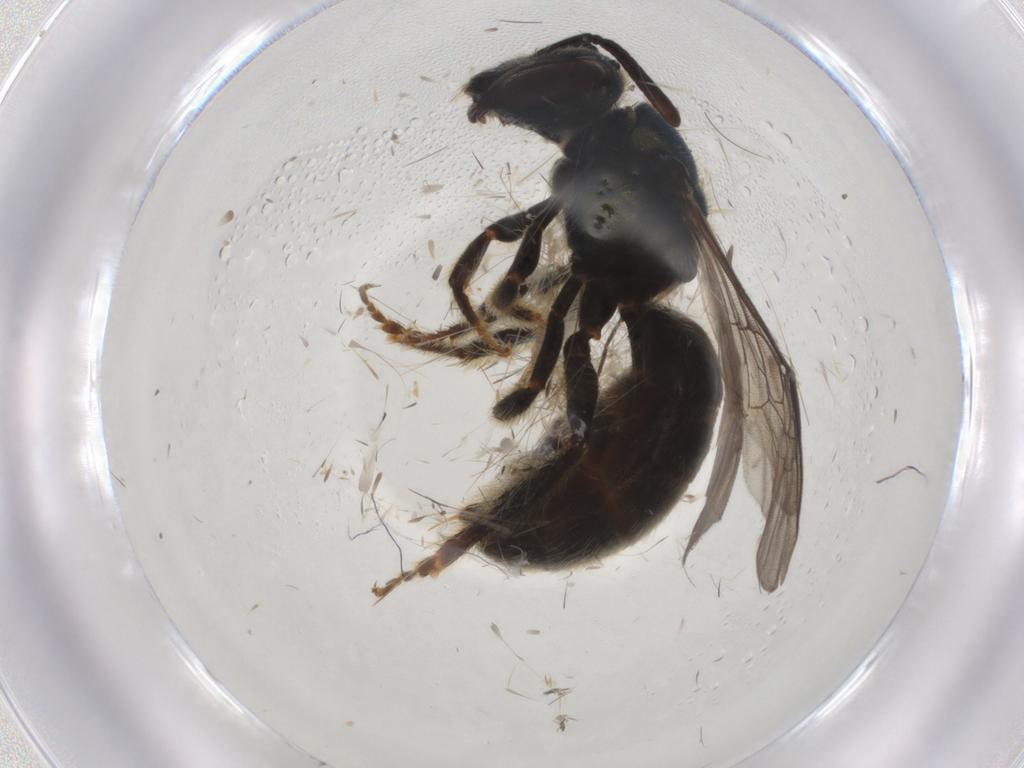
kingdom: Animalia
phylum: Arthropoda
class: Insecta
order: Hymenoptera
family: Halictidae
